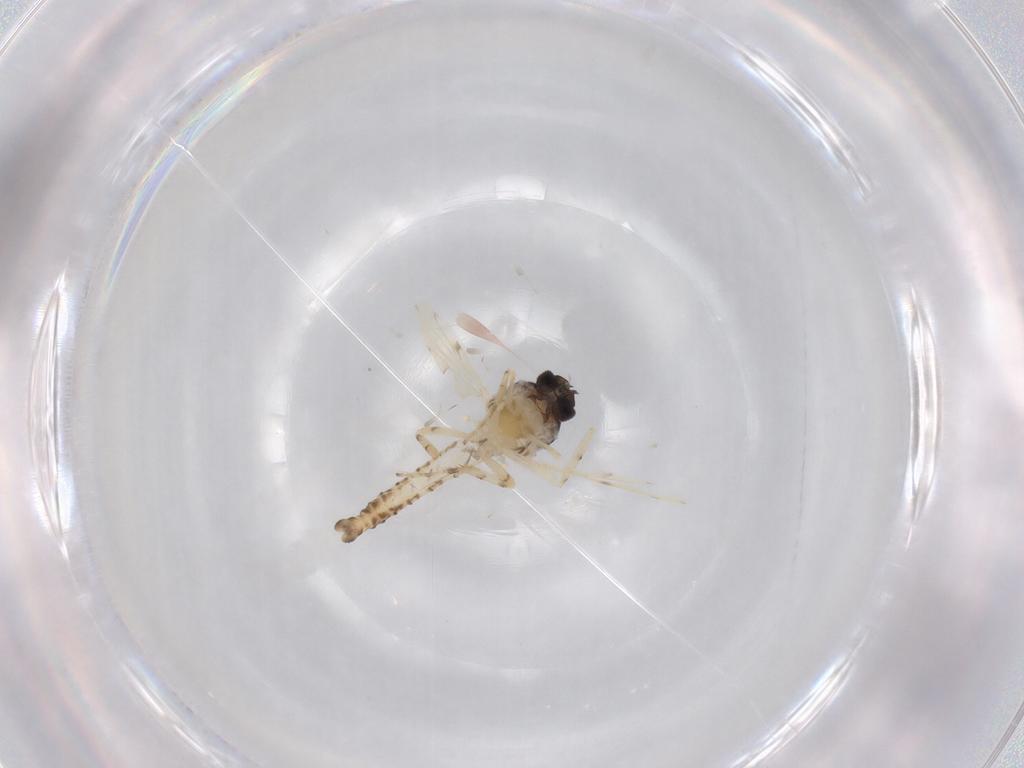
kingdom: Animalia
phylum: Arthropoda
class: Insecta
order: Diptera
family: Ceratopogonidae
